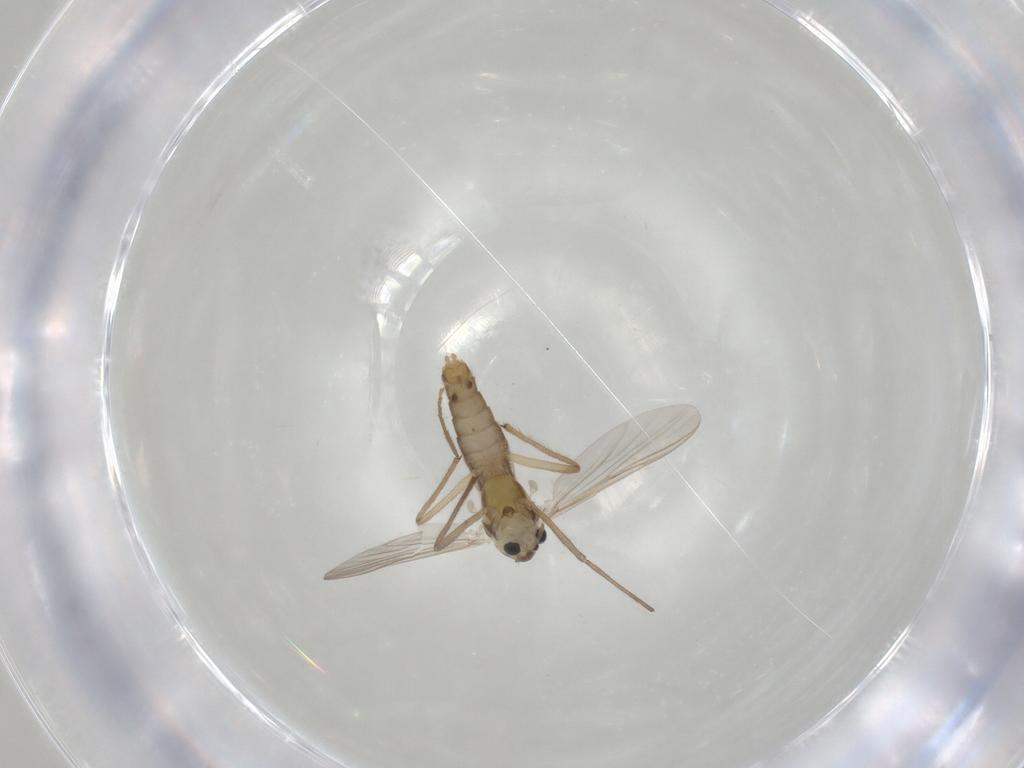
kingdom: Animalia
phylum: Arthropoda
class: Insecta
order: Diptera
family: Chironomidae
